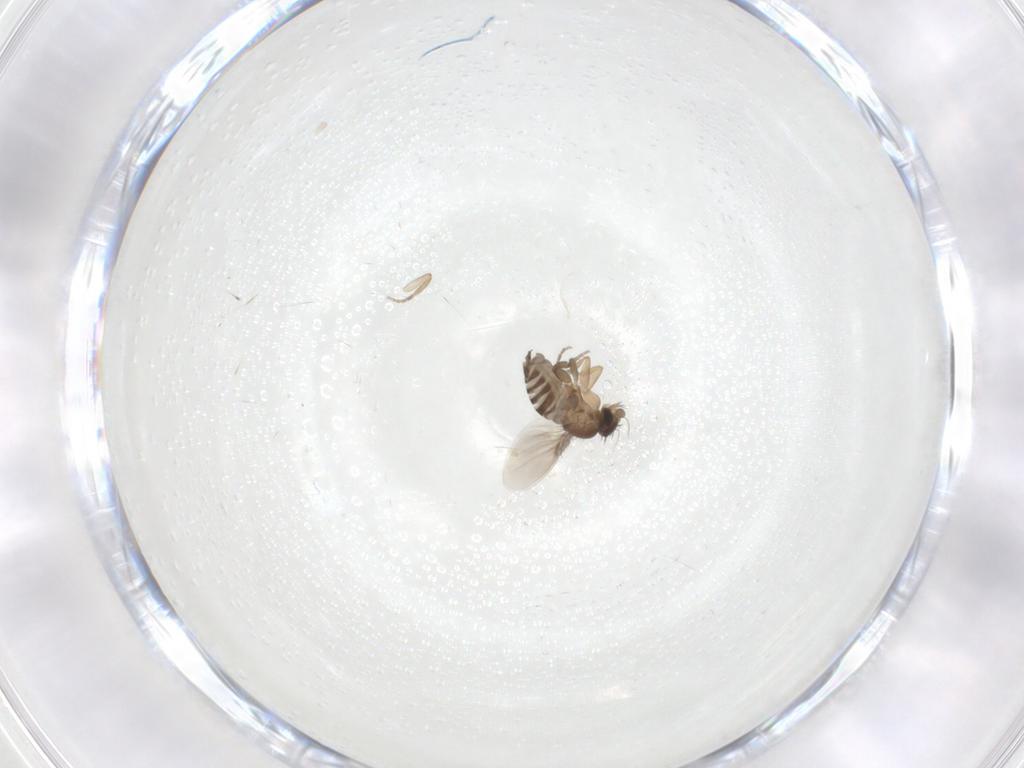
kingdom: Animalia
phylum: Arthropoda
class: Insecta
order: Diptera
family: Phoridae
